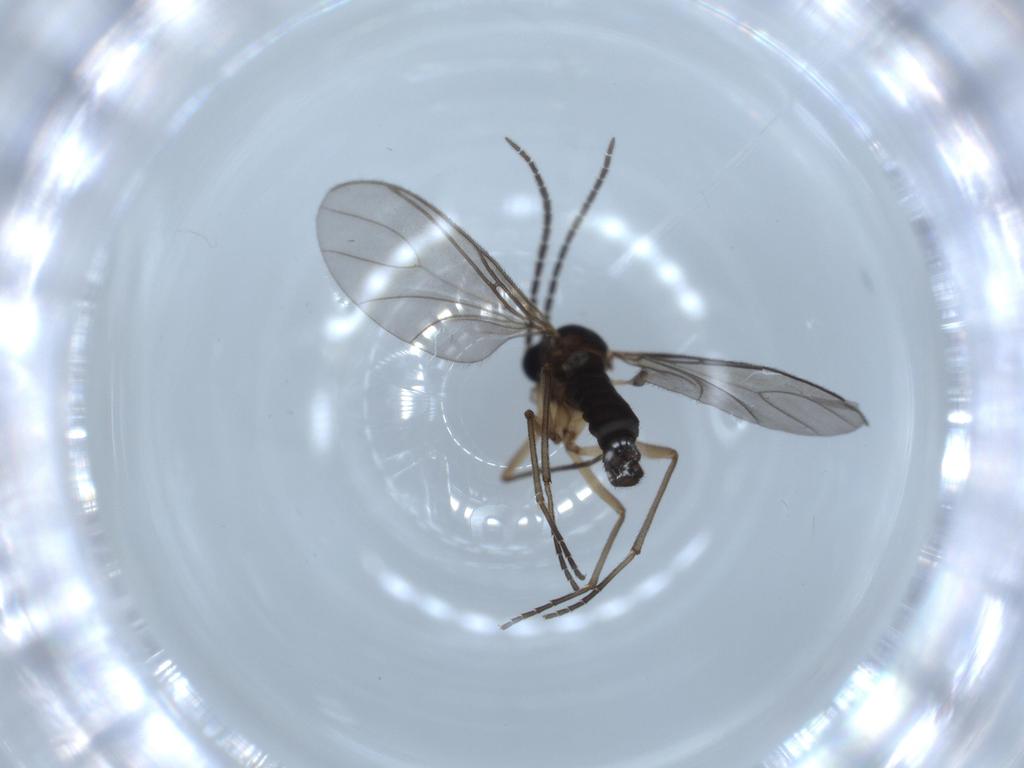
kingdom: Animalia
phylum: Arthropoda
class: Insecta
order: Diptera
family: Sciaridae
